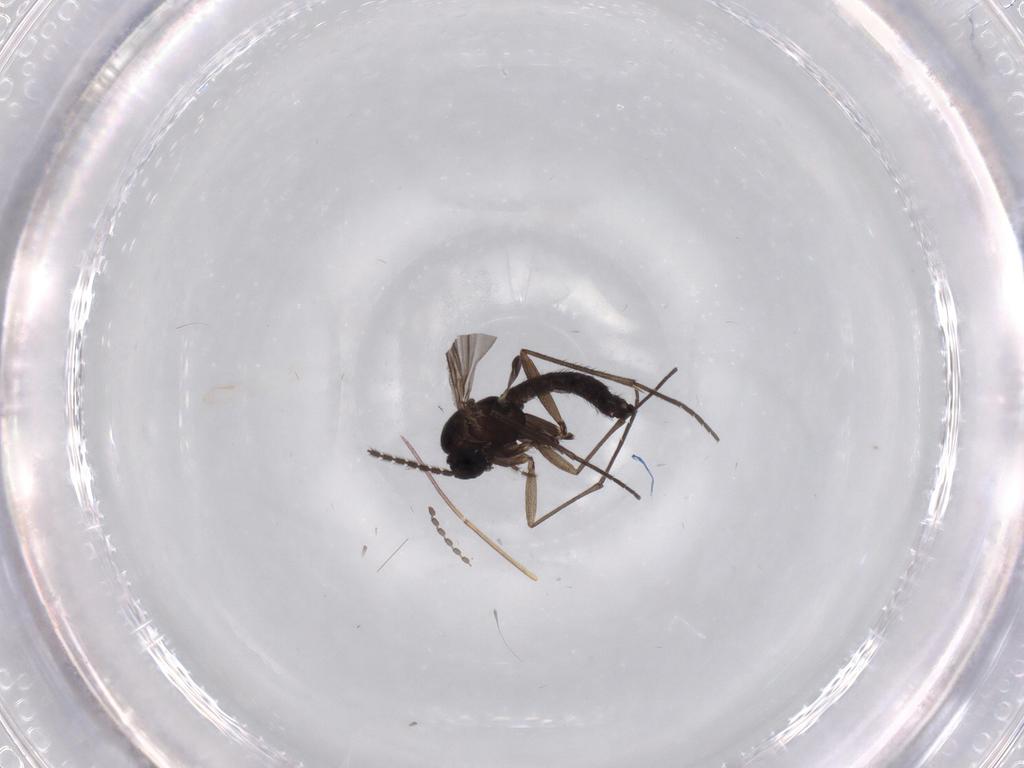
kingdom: Animalia
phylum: Arthropoda
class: Insecta
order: Diptera
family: Sciaridae
